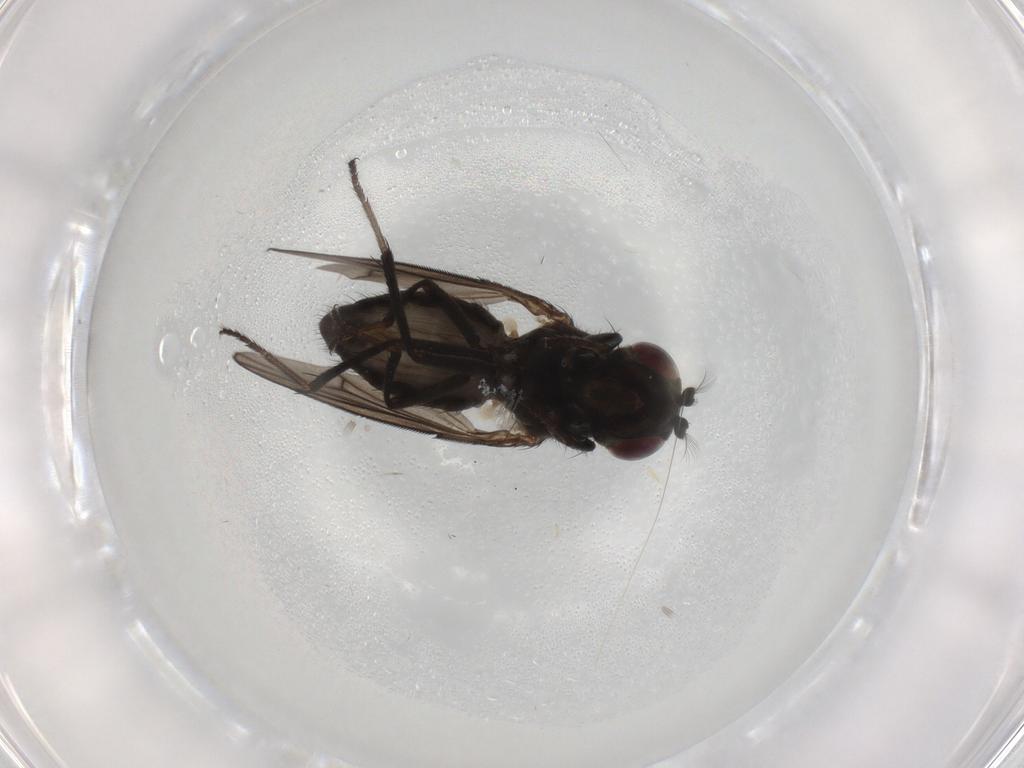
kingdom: Animalia
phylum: Arthropoda
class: Insecta
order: Diptera
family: Ephydridae
